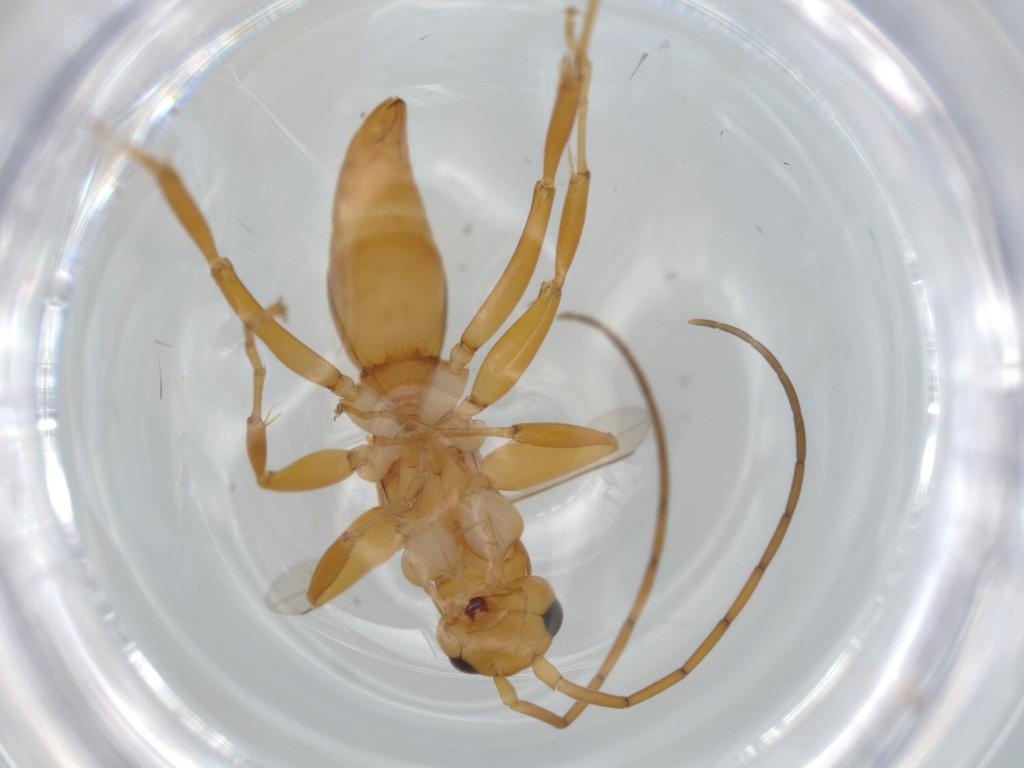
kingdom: Animalia
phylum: Arthropoda
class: Insecta
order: Hymenoptera
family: Rhopalosomatidae
